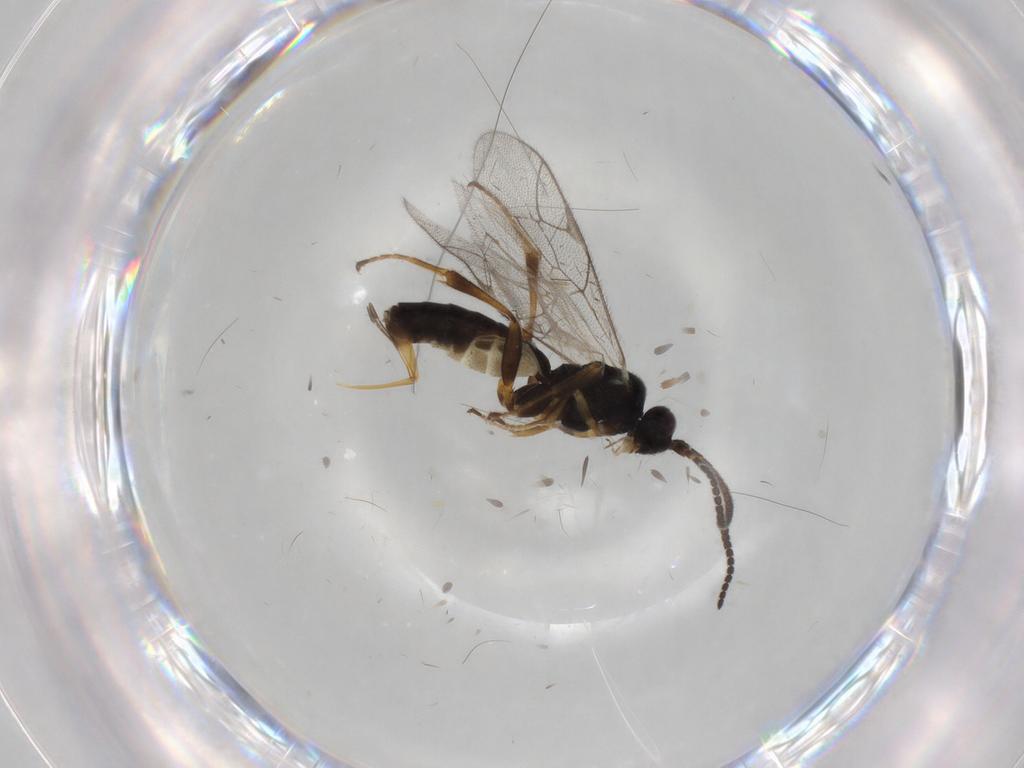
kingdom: Animalia
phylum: Arthropoda
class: Insecta
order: Hymenoptera
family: Ichneumonidae
